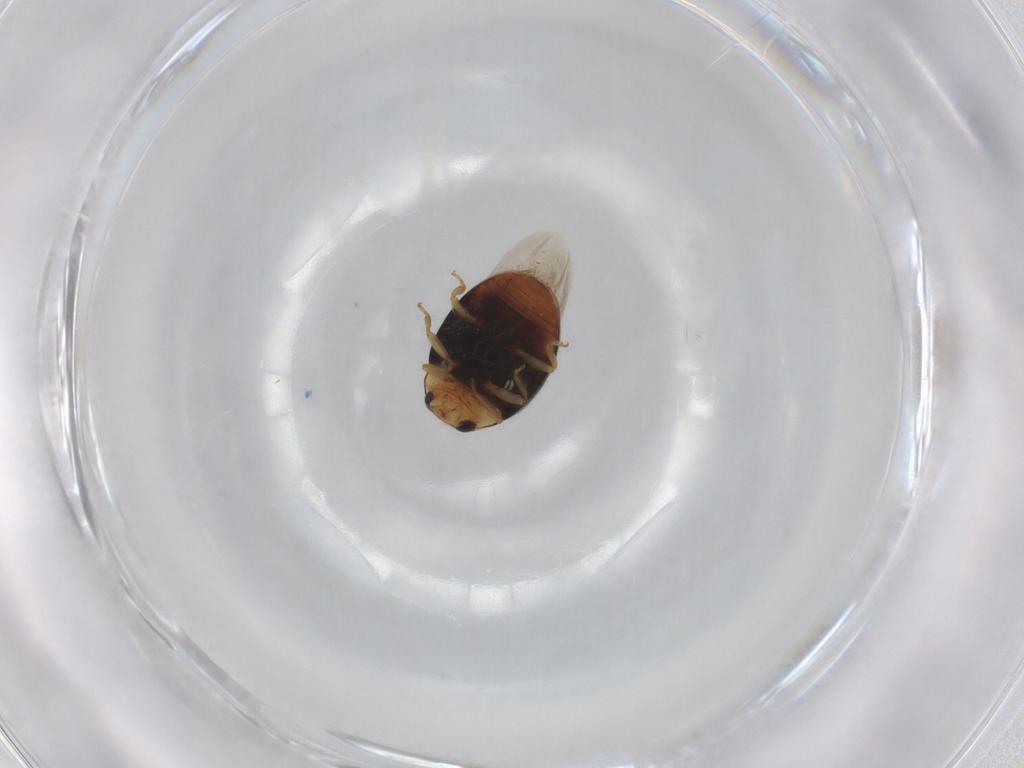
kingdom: Animalia
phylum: Arthropoda
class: Insecta
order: Coleoptera
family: Coccinellidae
